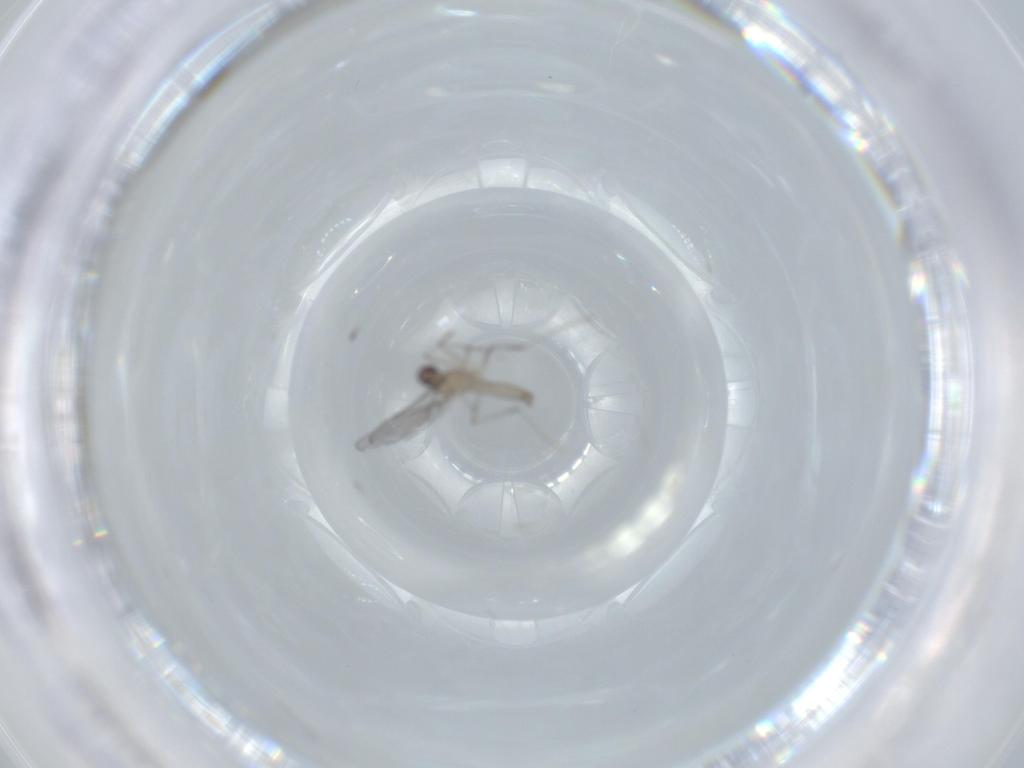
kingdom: Animalia
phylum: Arthropoda
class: Insecta
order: Diptera
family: Cecidomyiidae
